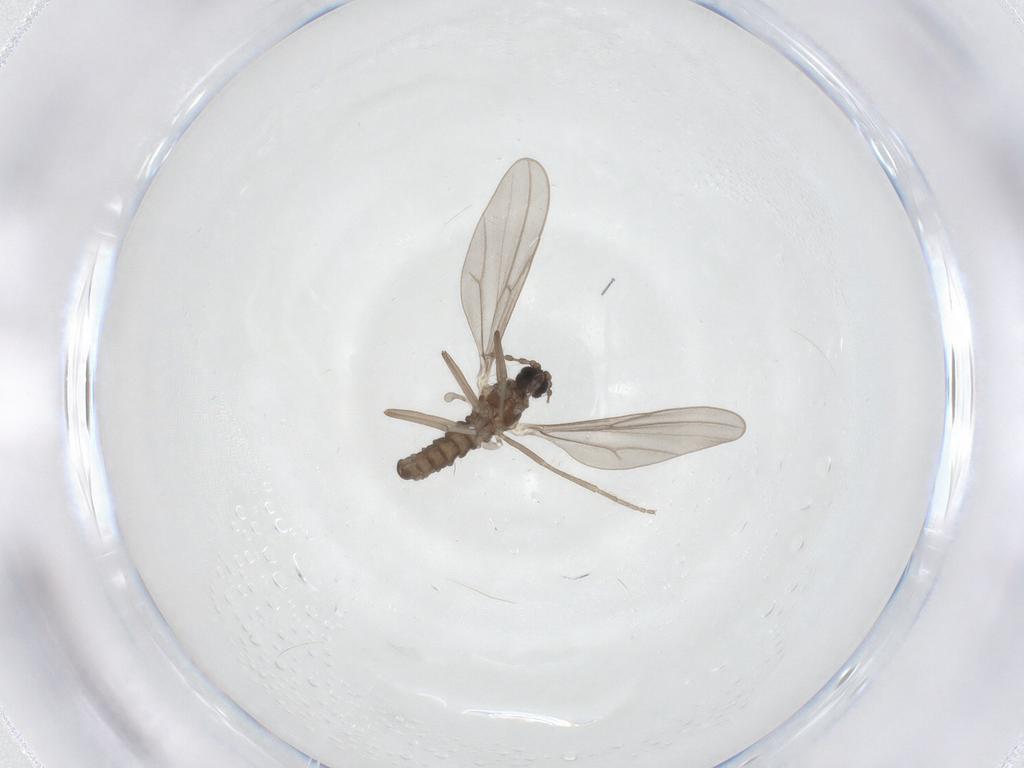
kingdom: Animalia
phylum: Arthropoda
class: Insecta
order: Diptera
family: Cecidomyiidae
